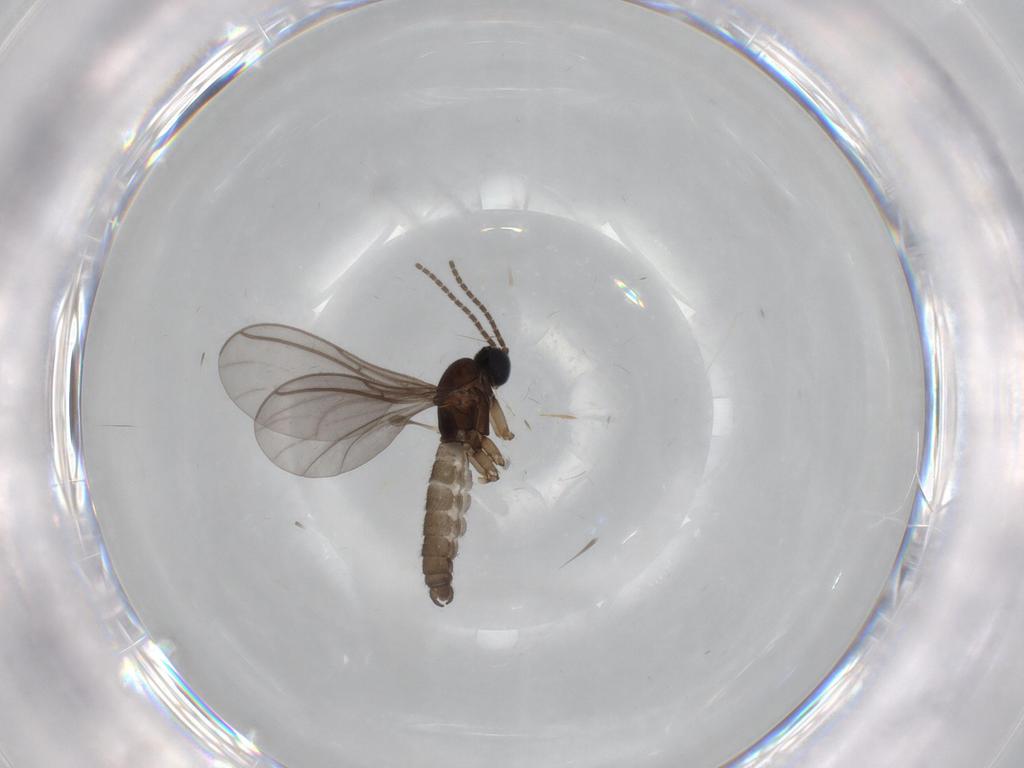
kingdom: Animalia
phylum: Arthropoda
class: Insecta
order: Diptera
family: Sciaridae
